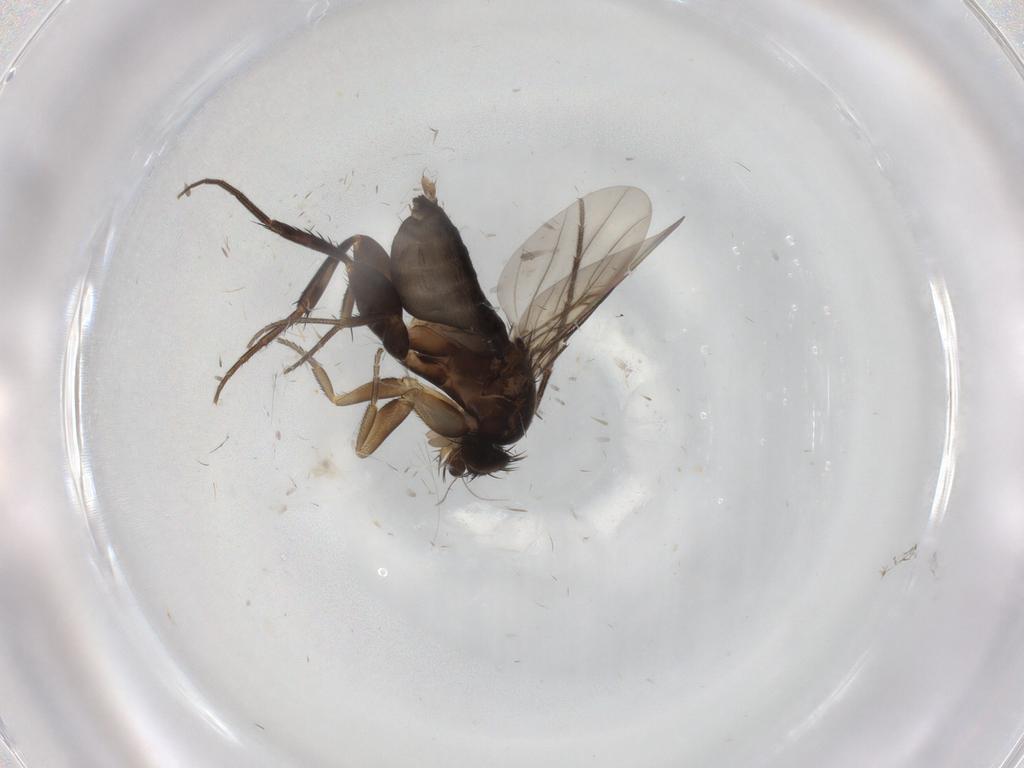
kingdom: Animalia
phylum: Arthropoda
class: Insecta
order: Diptera
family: Phoridae
